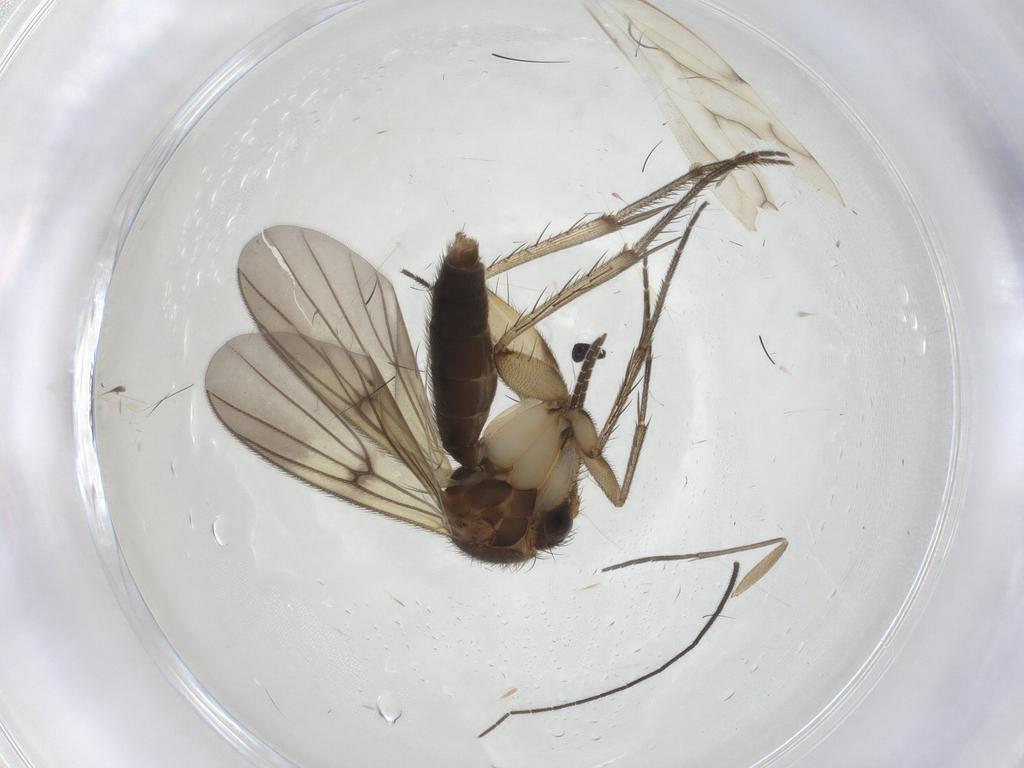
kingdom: Animalia
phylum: Arthropoda
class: Insecta
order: Diptera
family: Mycetophilidae
